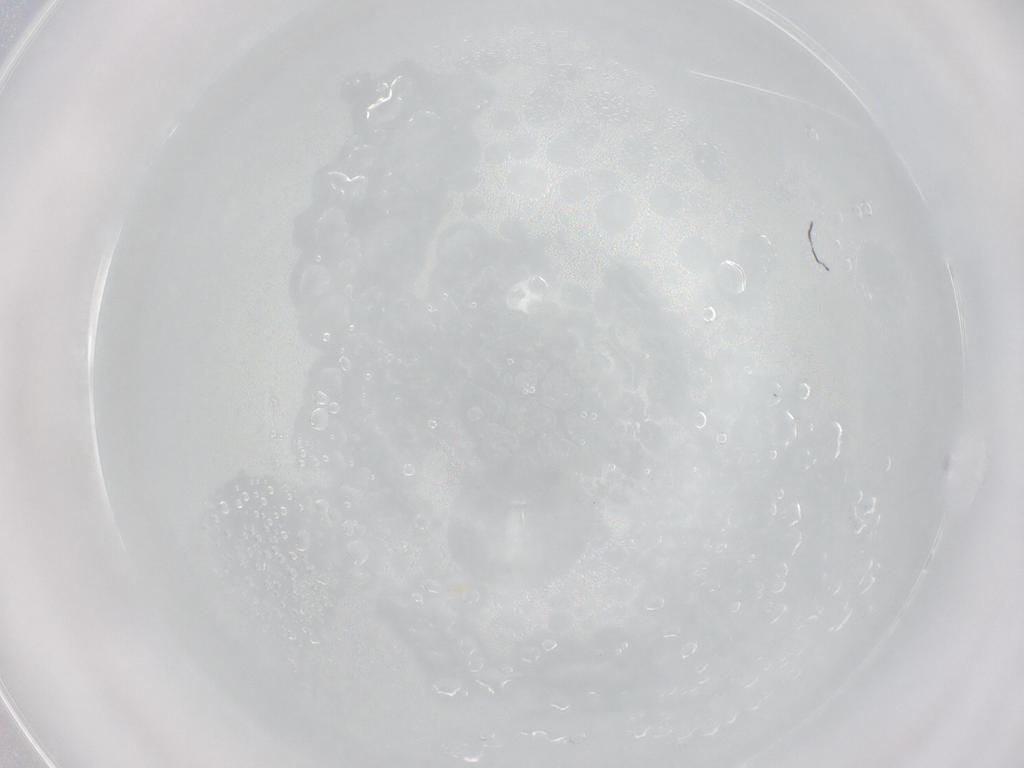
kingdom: Animalia
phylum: Arthropoda
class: Arachnida
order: Trombidiformes
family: Pygmephoridae
